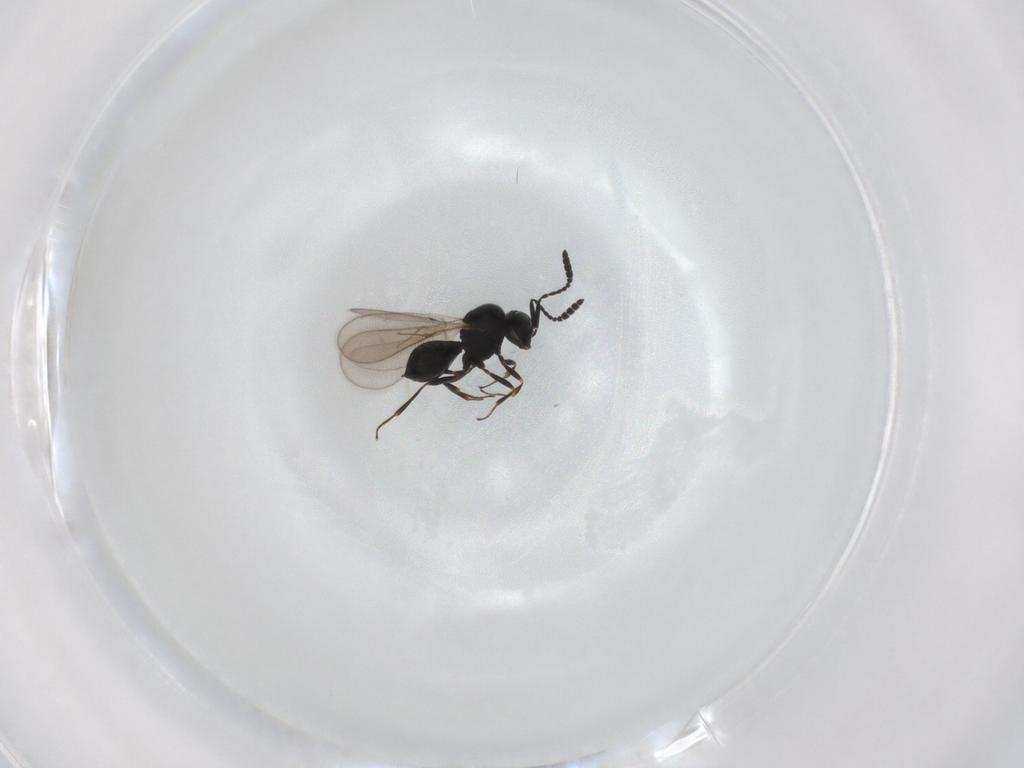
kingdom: Animalia
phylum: Arthropoda
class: Insecta
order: Hymenoptera
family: Scelionidae
